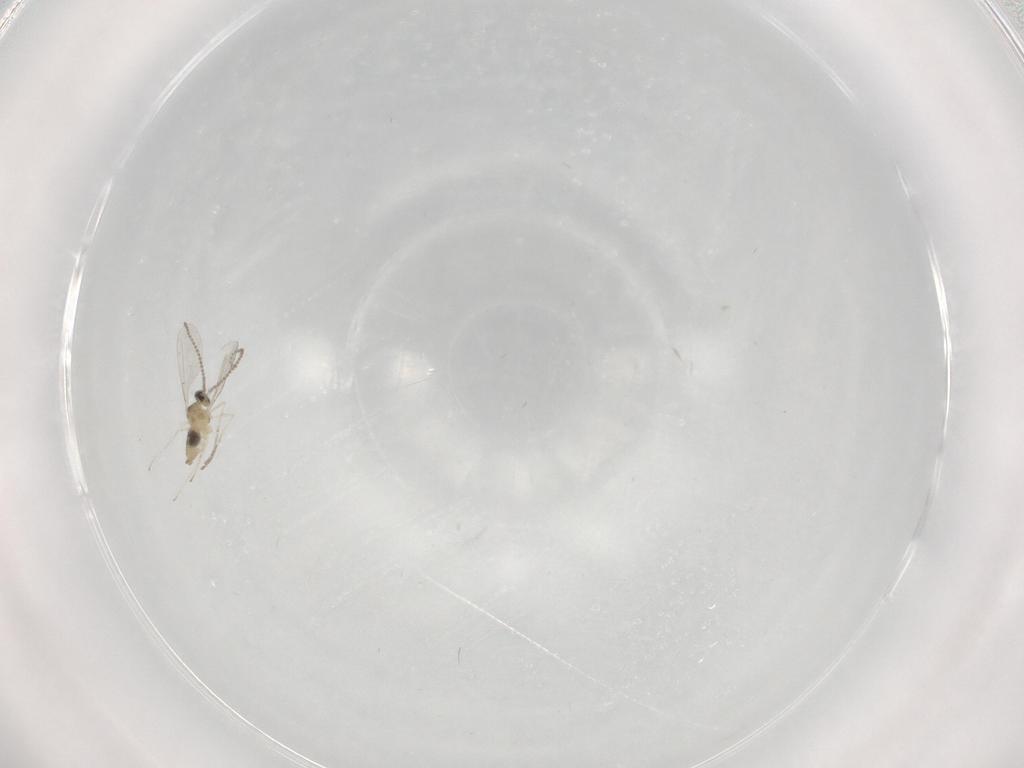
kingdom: Animalia
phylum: Arthropoda
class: Insecta
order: Diptera
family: Cecidomyiidae
